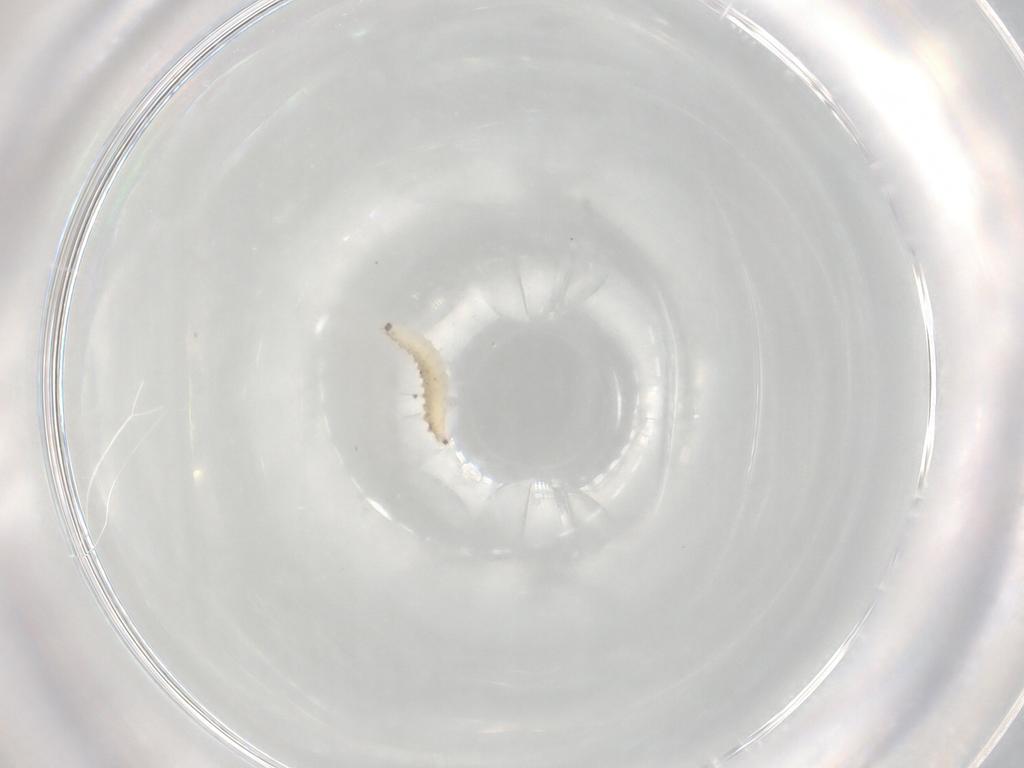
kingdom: Animalia
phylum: Arthropoda
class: Insecta
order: Diptera
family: Cecidomyiidae
